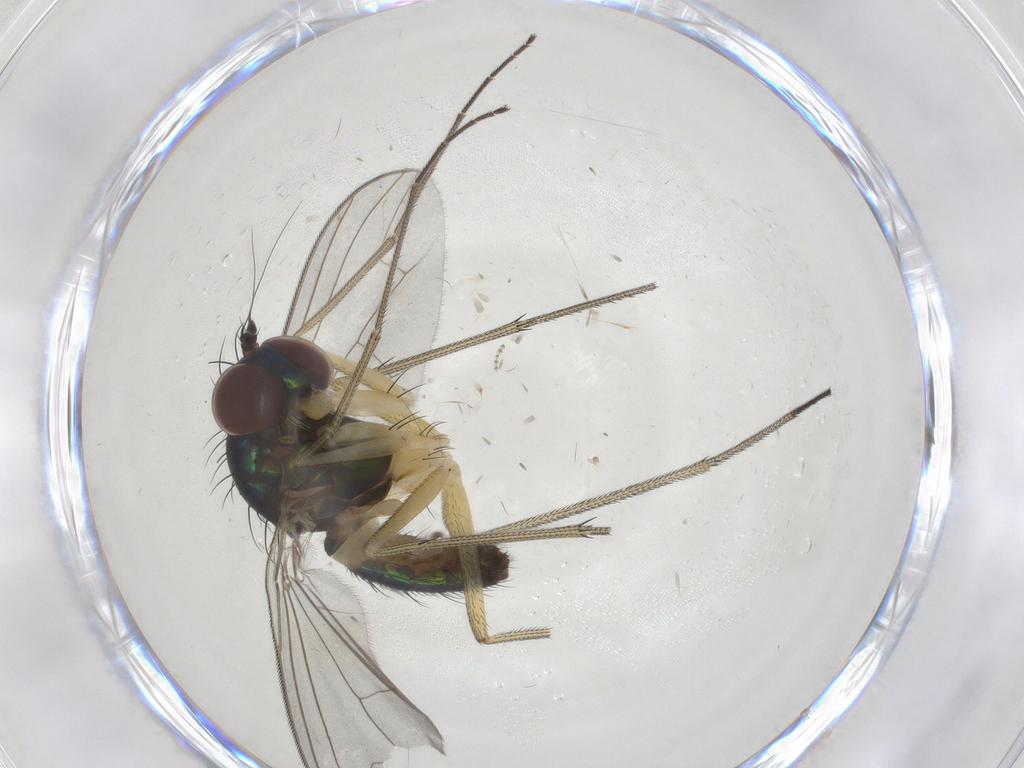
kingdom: Animalia
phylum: Arthropoda
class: Insecta
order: Diptera
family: Dolichopodidae
